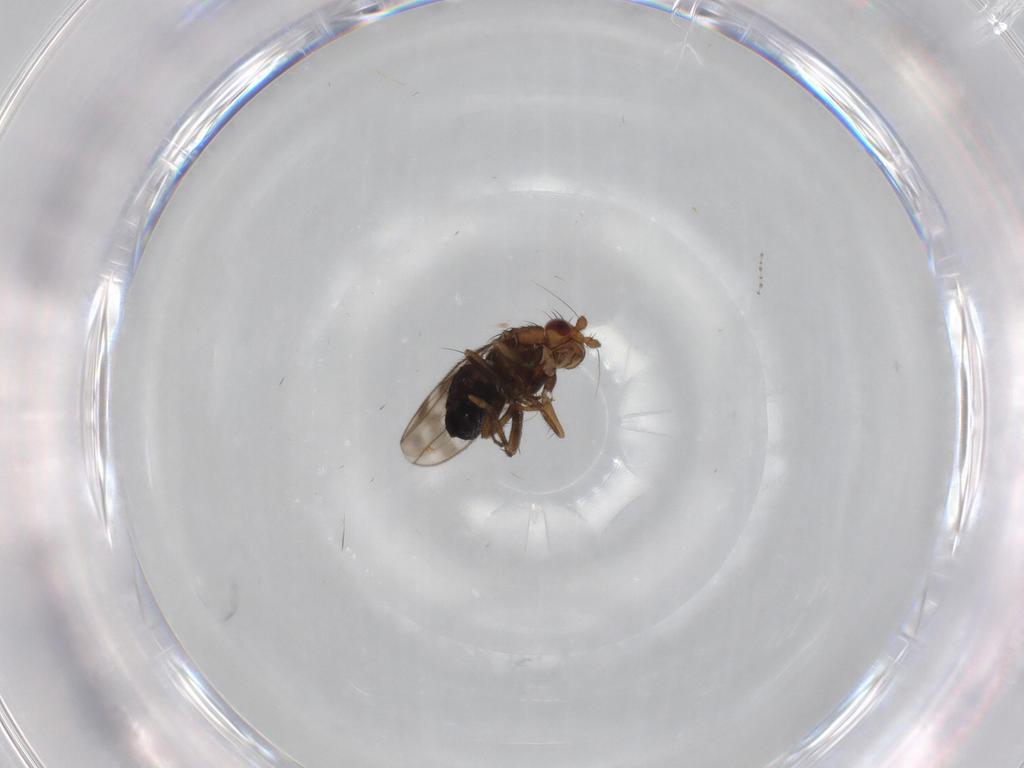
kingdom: Animalia
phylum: Arthropoda
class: Insecta
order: Diptera
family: Sphaeroceridae
